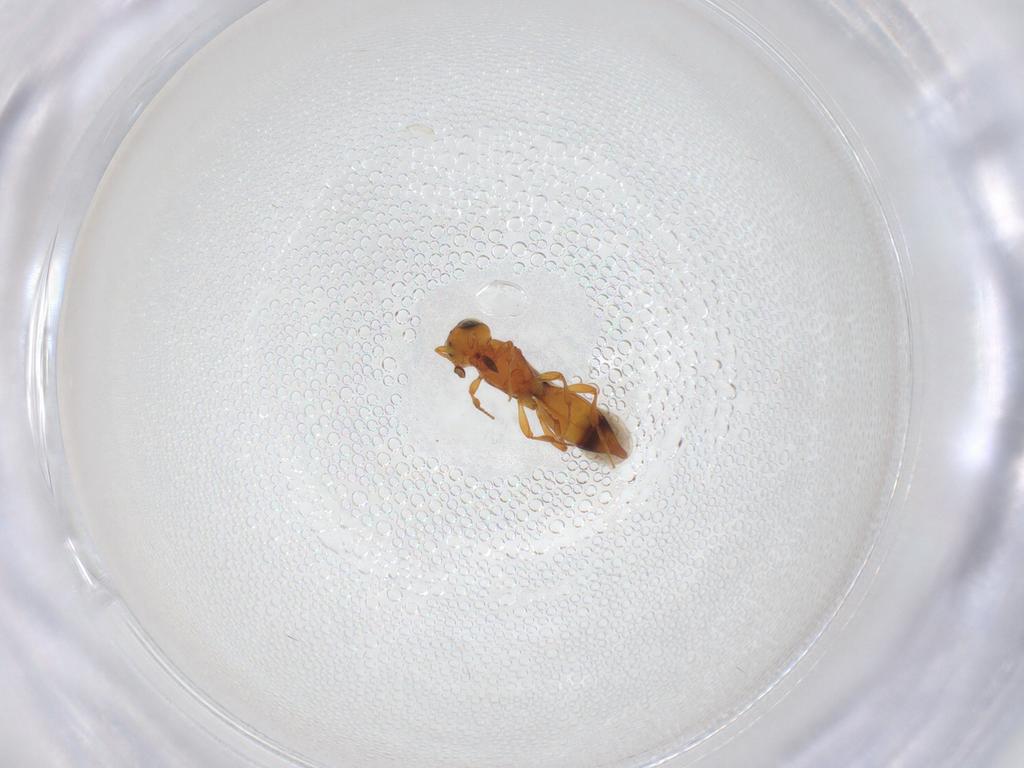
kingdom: Animalia
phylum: Arthropoda
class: Insecta
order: Hymenoptera
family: Platygastridae
